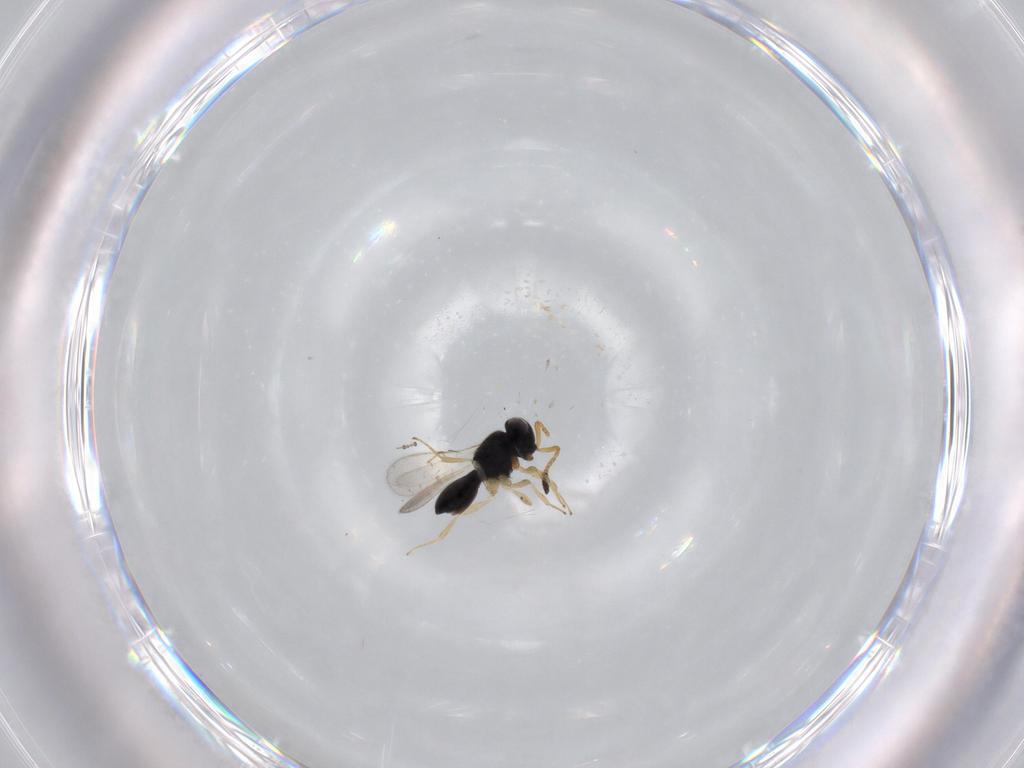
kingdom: Animalia
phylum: Arthropoda
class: Insecta
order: Hymenoptera
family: Scelionidae
